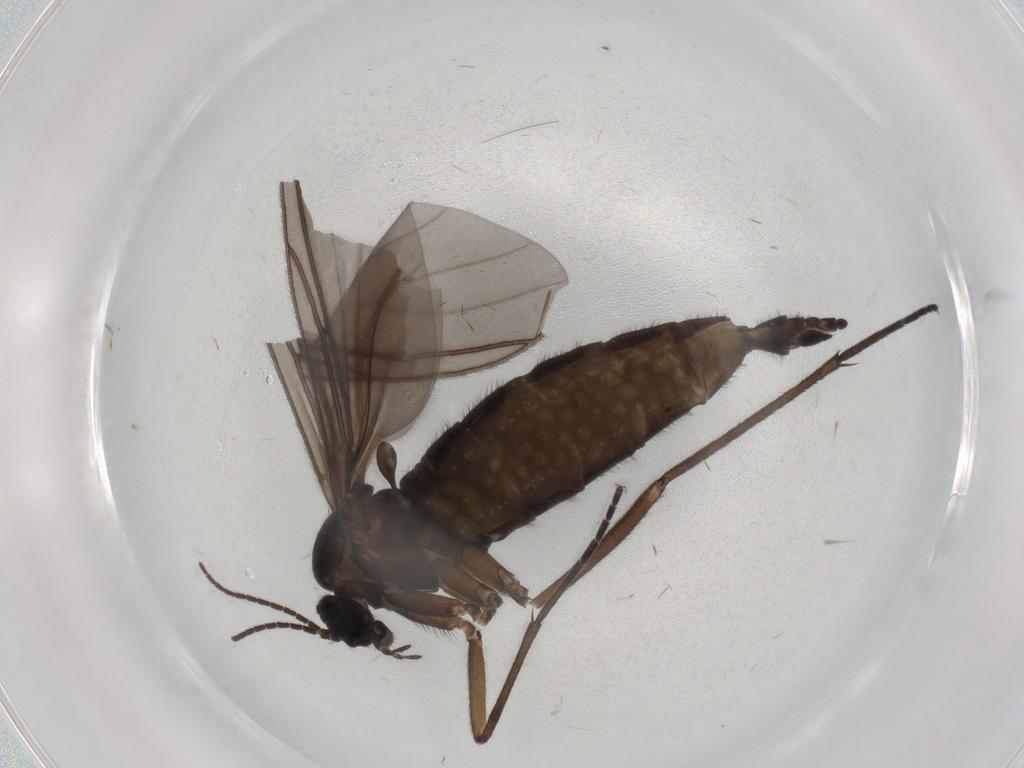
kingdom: Animalia
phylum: Arthropoda
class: Insecta
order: Diptera
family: Sciaridae
